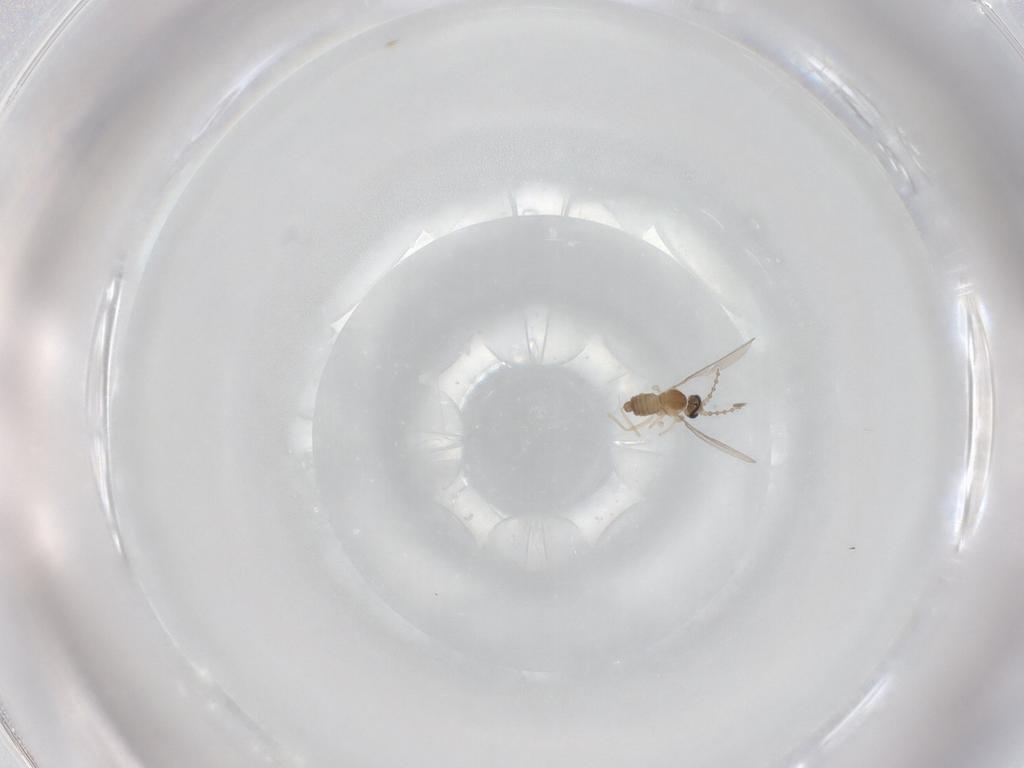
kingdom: Animalia
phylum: Arthropoda
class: Insecta
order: Diptera
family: Cecidomyiidae
